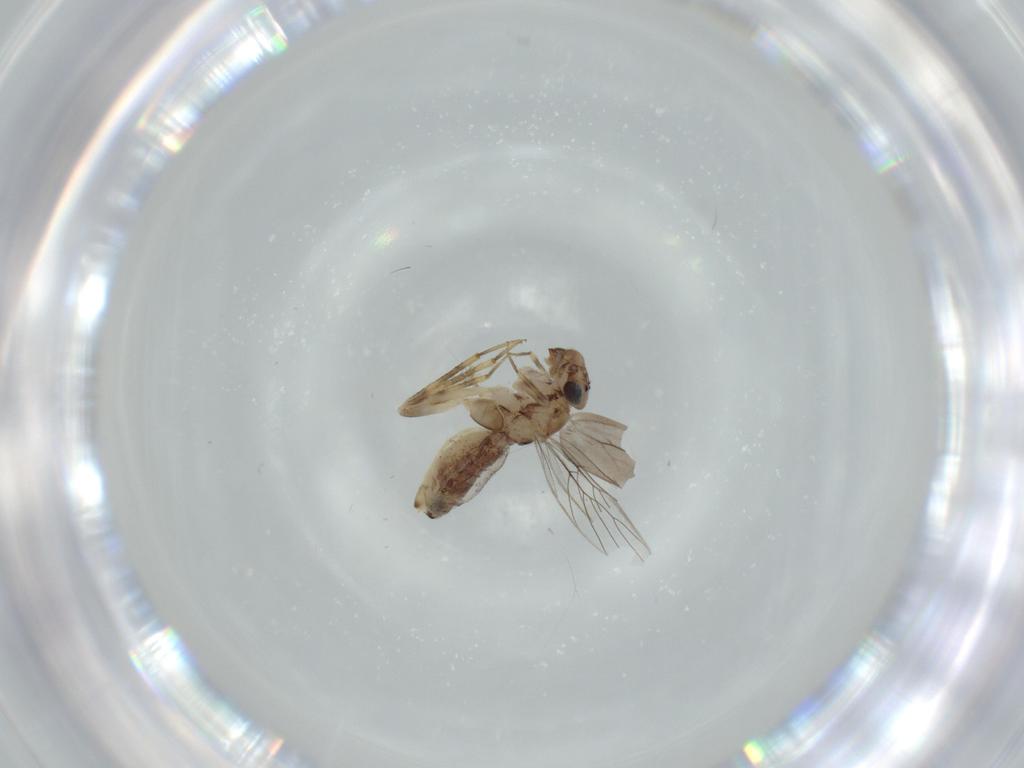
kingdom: Animalia
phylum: Arthropoda
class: Insecta
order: Psocodea
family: Lepidopsocidae
